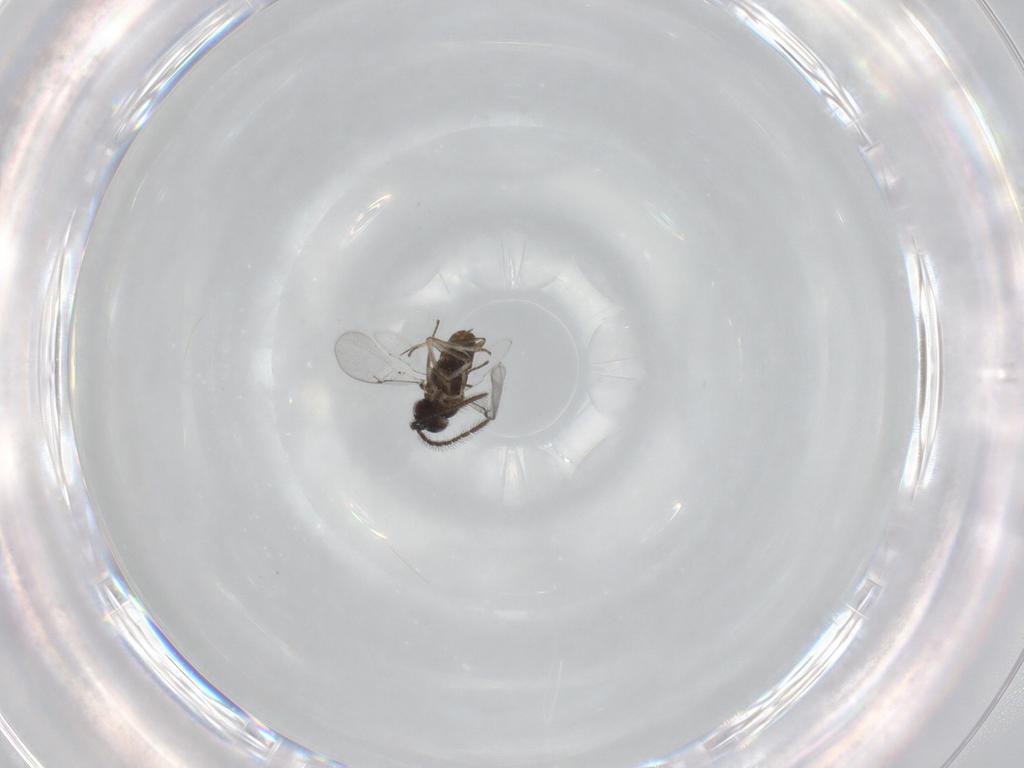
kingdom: Animalia
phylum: Arthropoda
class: Insecta
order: Hymenoptera
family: Encyrtidae
